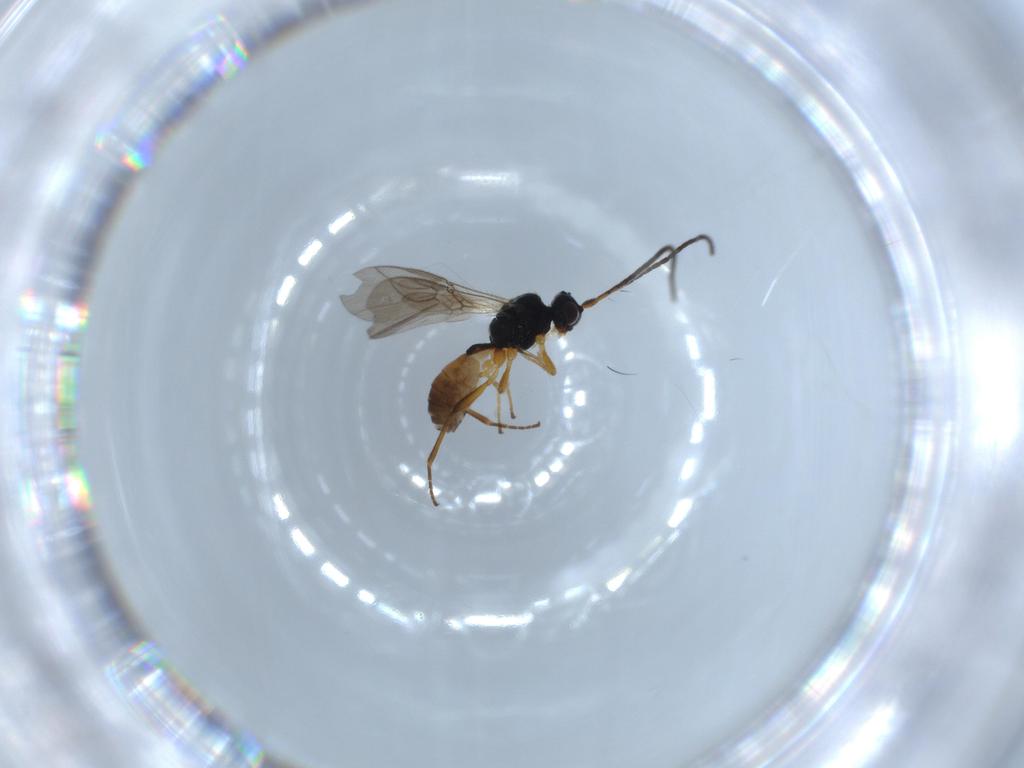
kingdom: Animalia
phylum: Arthropoda
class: Insecta
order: Hymenoptera
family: Braconidae
